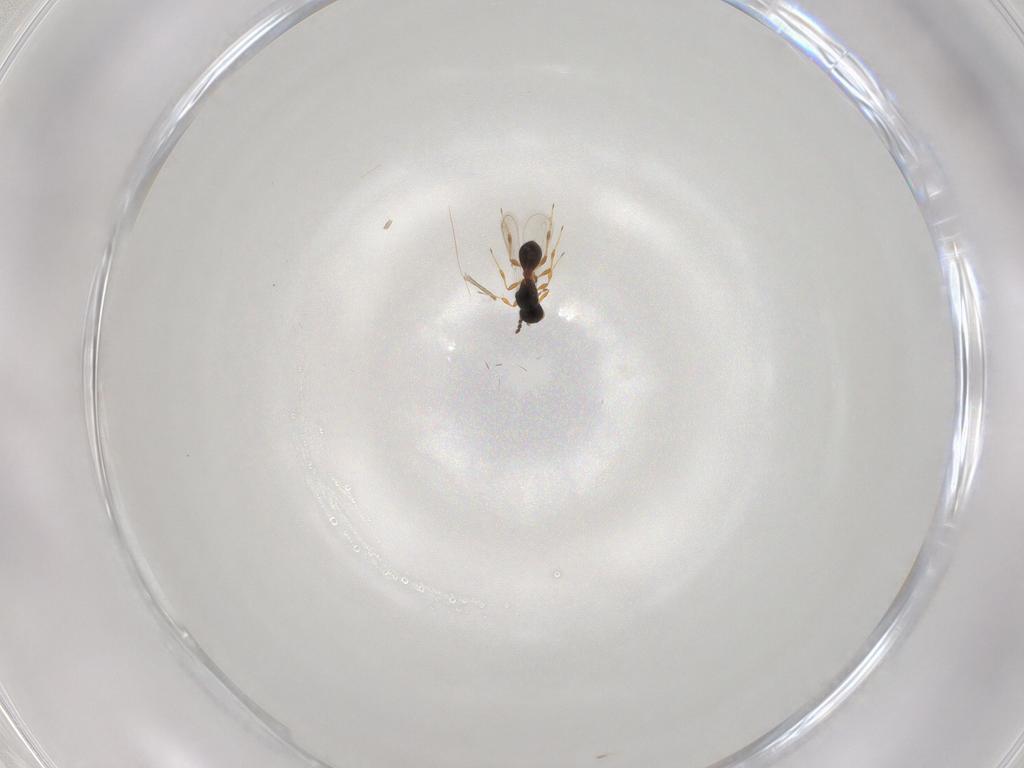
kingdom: Animalia
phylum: Arthropoda
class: Insecta
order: Hymenoptera
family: Platygastridae
